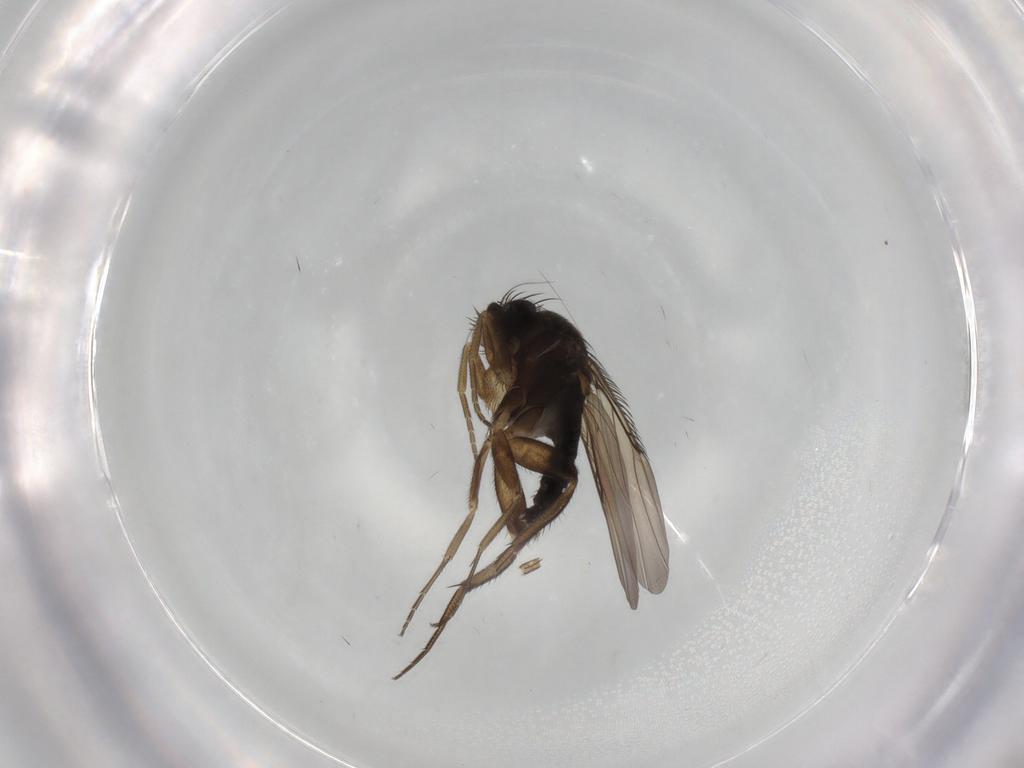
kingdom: Animalia
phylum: Arthropoda
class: Insecta
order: Diptera
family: Phoridae
